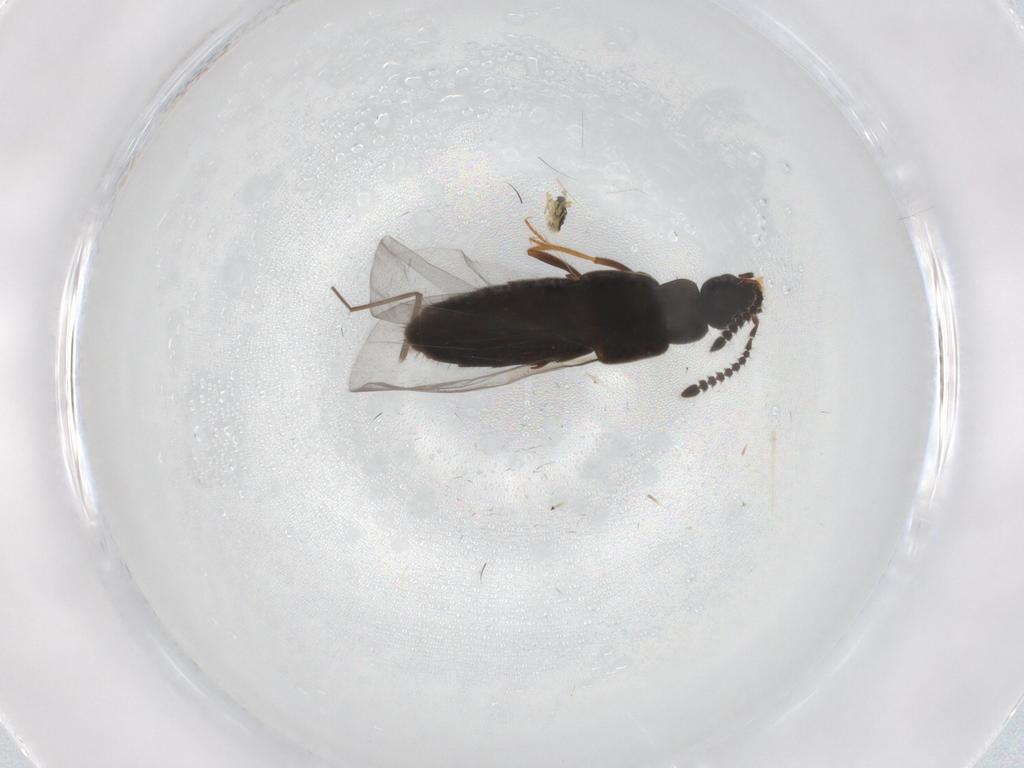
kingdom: Animalia
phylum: Arthropoda
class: Insecta
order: Coleoptera
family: Staphylinidae
